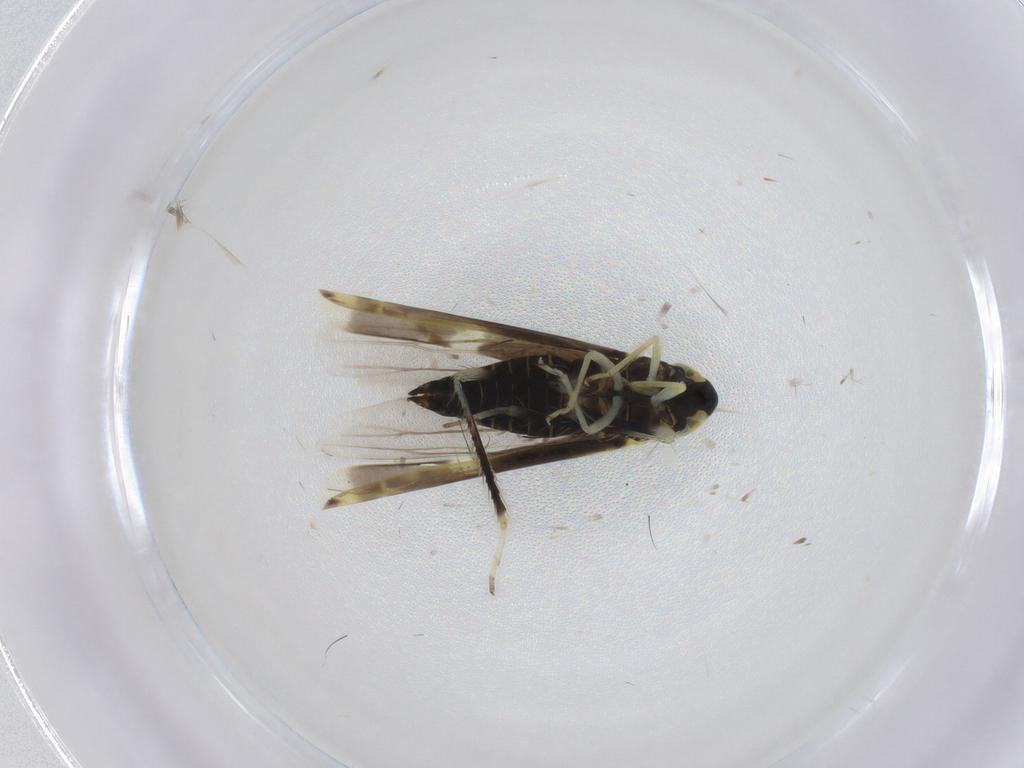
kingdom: Animalia
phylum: Arthropoda
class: Insecta
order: Hemiptera
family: Cicadellidae
